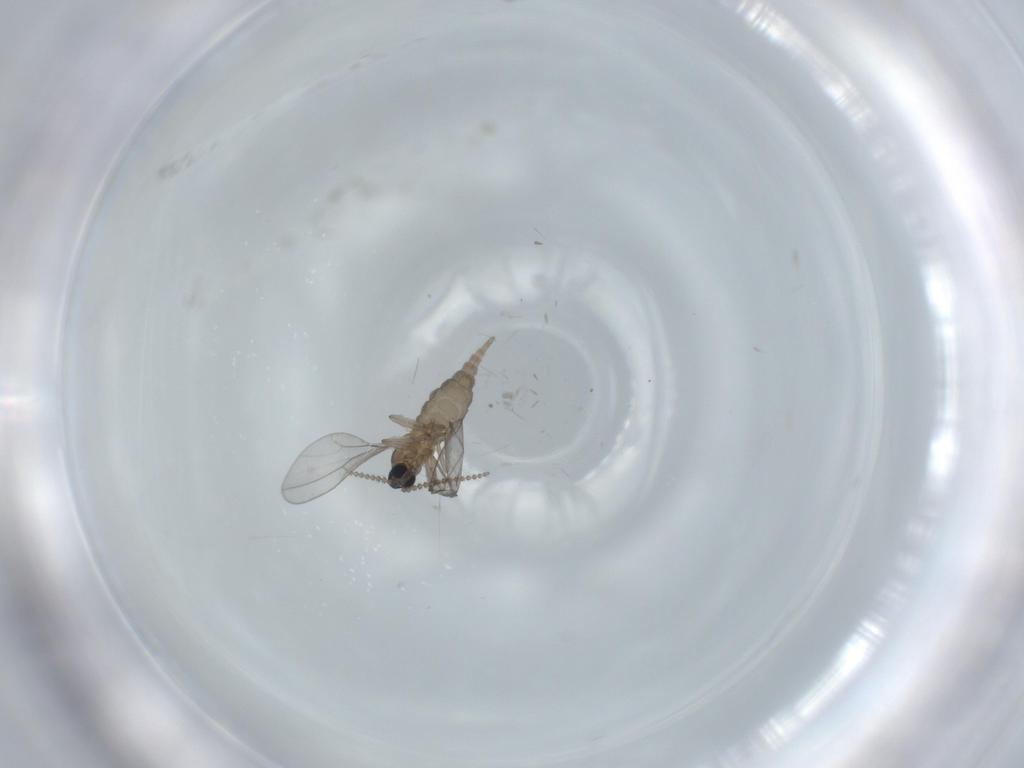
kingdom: Animalia
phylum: Arthropoda
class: Insecta
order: Diptera
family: Cecidomyiidae
